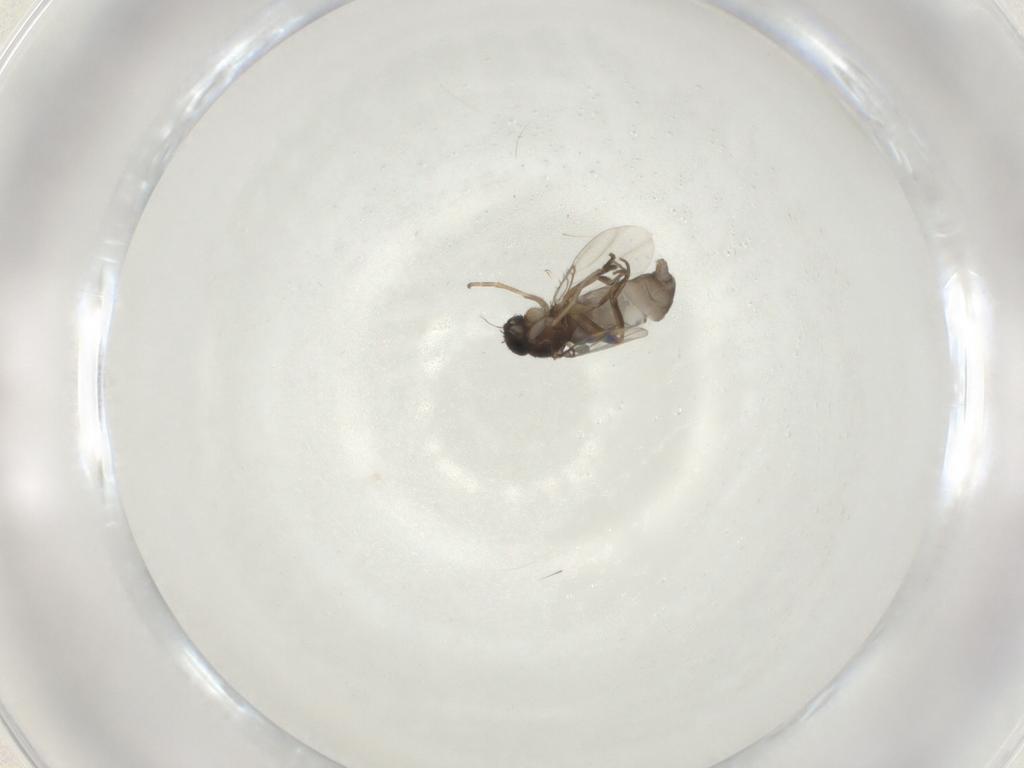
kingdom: Animalia
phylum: Arthropoda
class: Insecta
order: Diptera
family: Phoridae
